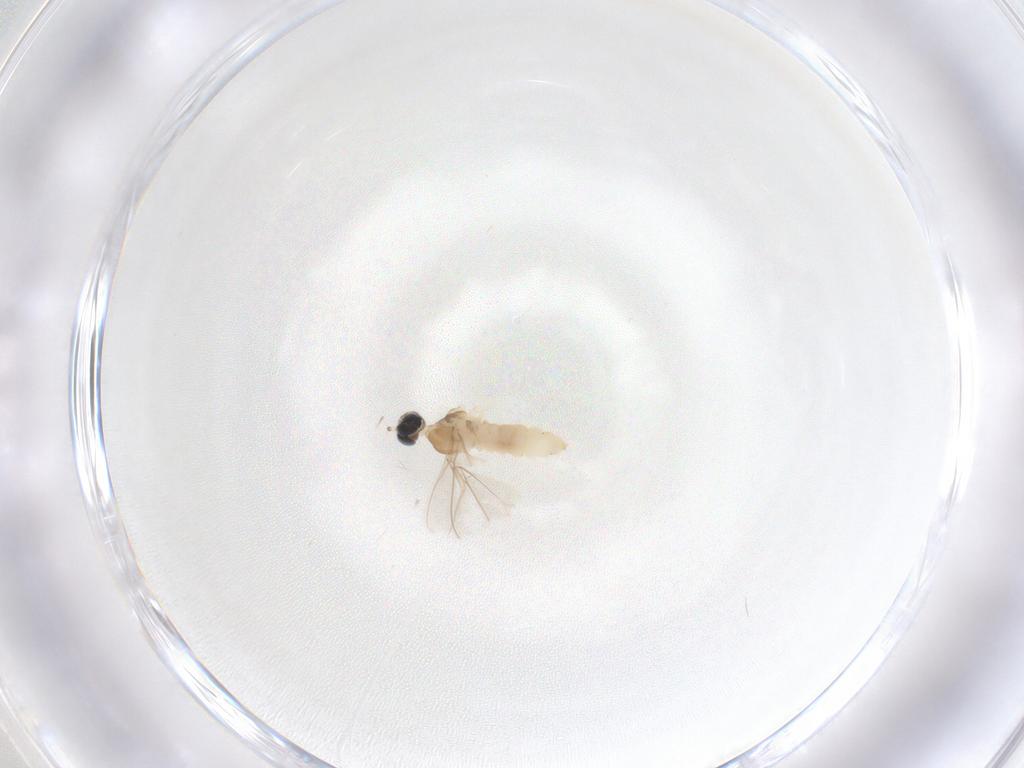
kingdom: Animalia
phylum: Arthropoda
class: Insecta
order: Diptera
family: Cecidomyiidae
